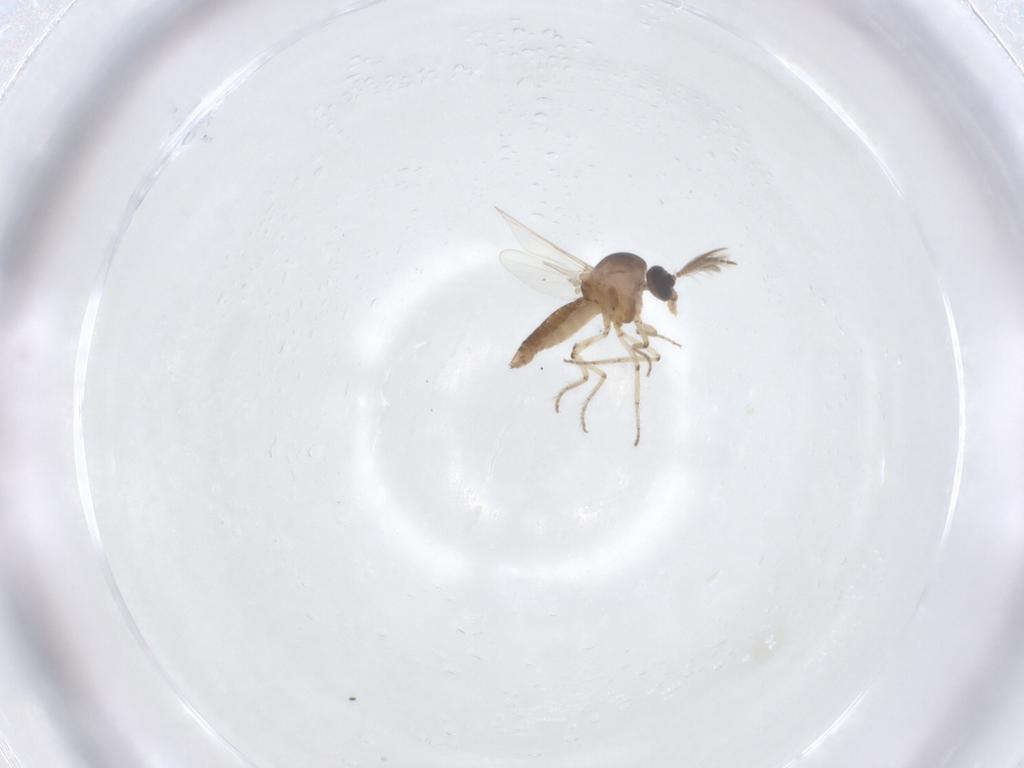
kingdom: Animalia
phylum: Arthropoda
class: Insecta
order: Diptera
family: Ceratopogonidae
